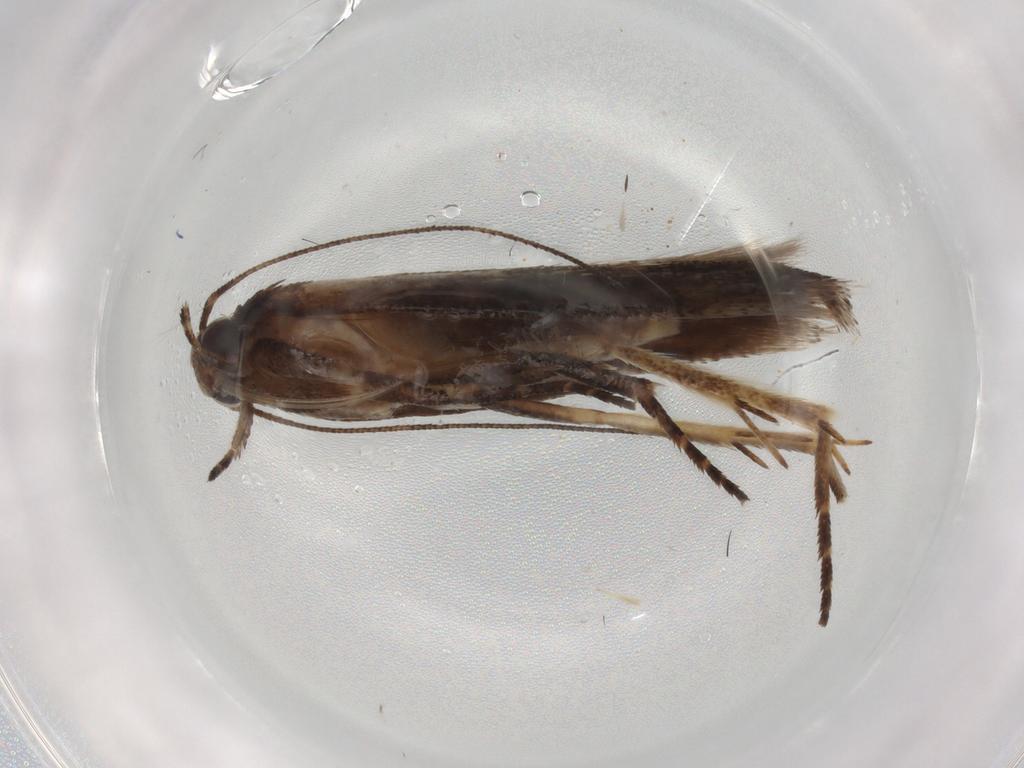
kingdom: Animalia
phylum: Arthropoda
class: Insecta
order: Lepidoptera
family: Gelechiidae
